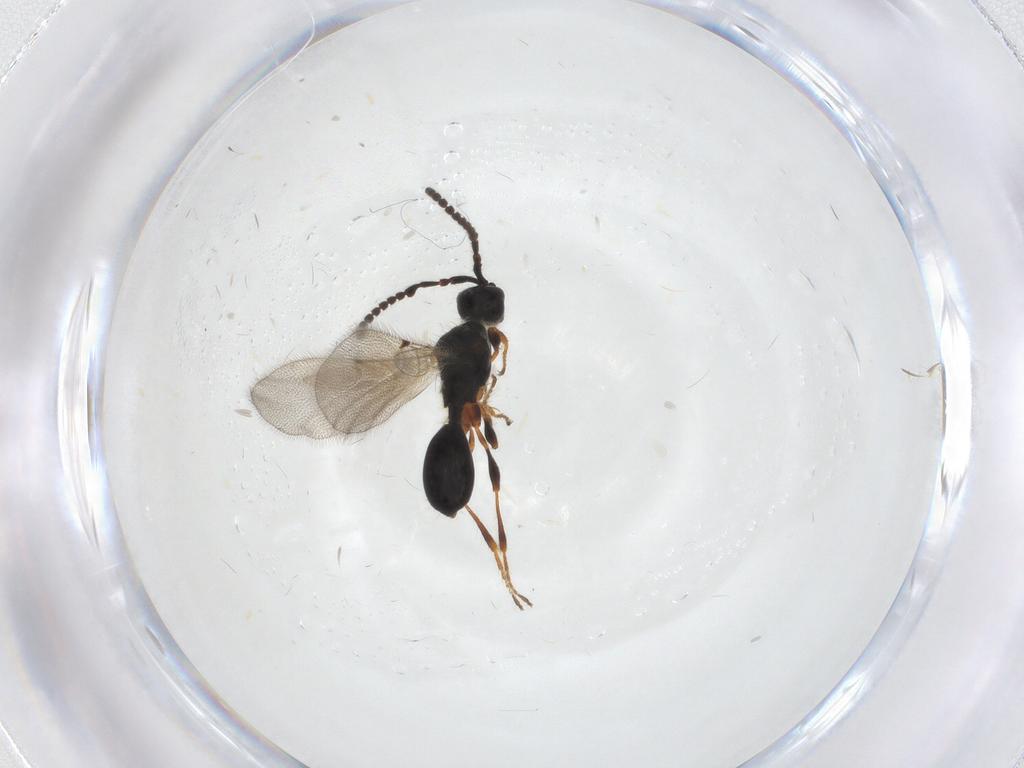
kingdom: Animalia
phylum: Arthropoda
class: Insecta
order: Hymenoptera
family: Diapriidae
